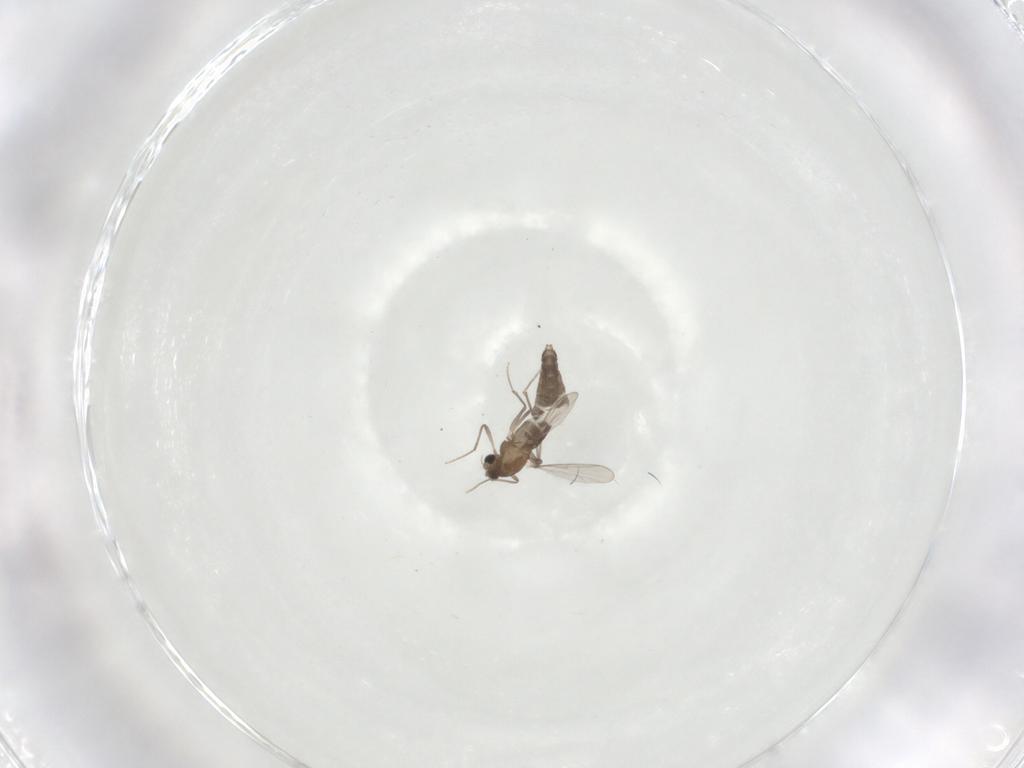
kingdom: Animalia
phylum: Arthropoda
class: Insecta
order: Diptera
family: Chironomidae
